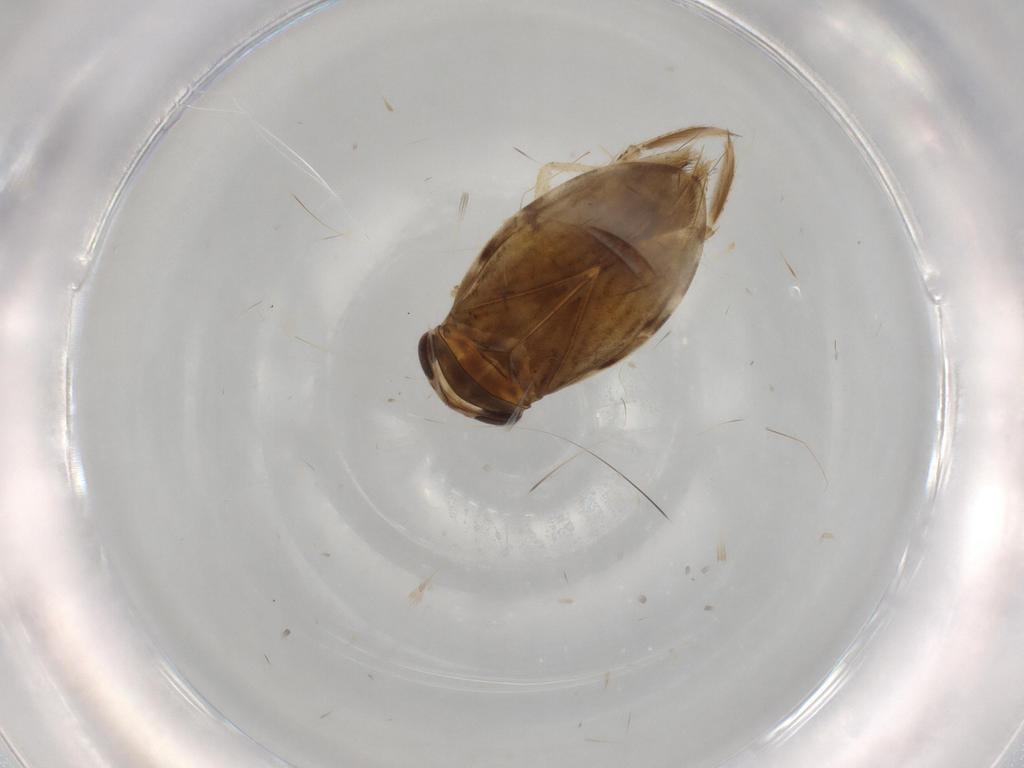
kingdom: Animalia
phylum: Arthropoda
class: Insecta
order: Hemiptera
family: Corixidae
